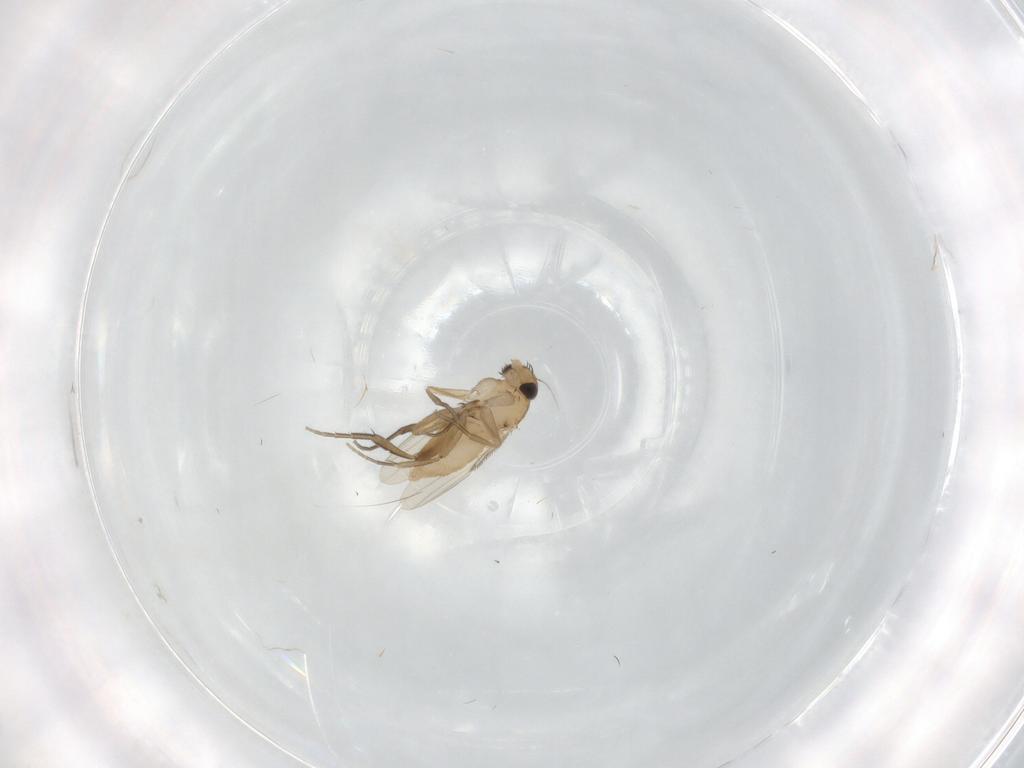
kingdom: Animalia
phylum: Arthropoda
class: Insecta
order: Diptera
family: Phoridae
